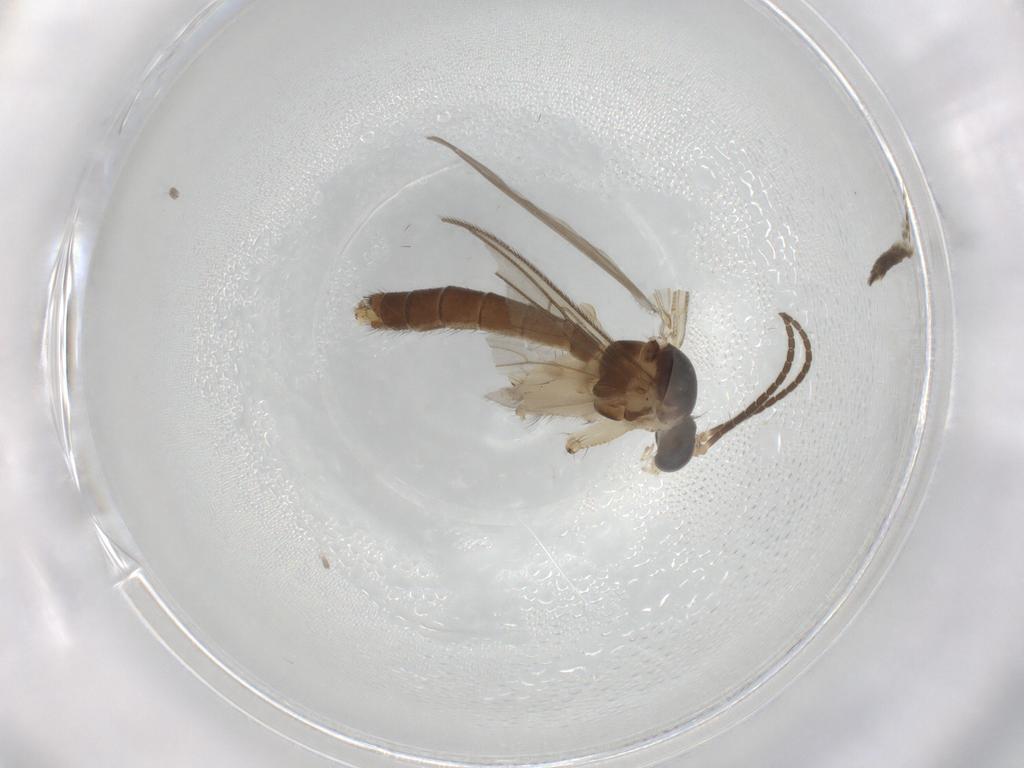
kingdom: Animalia
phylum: Arthropoda
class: Insecta
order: Diptera
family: Cecidomyiidae
